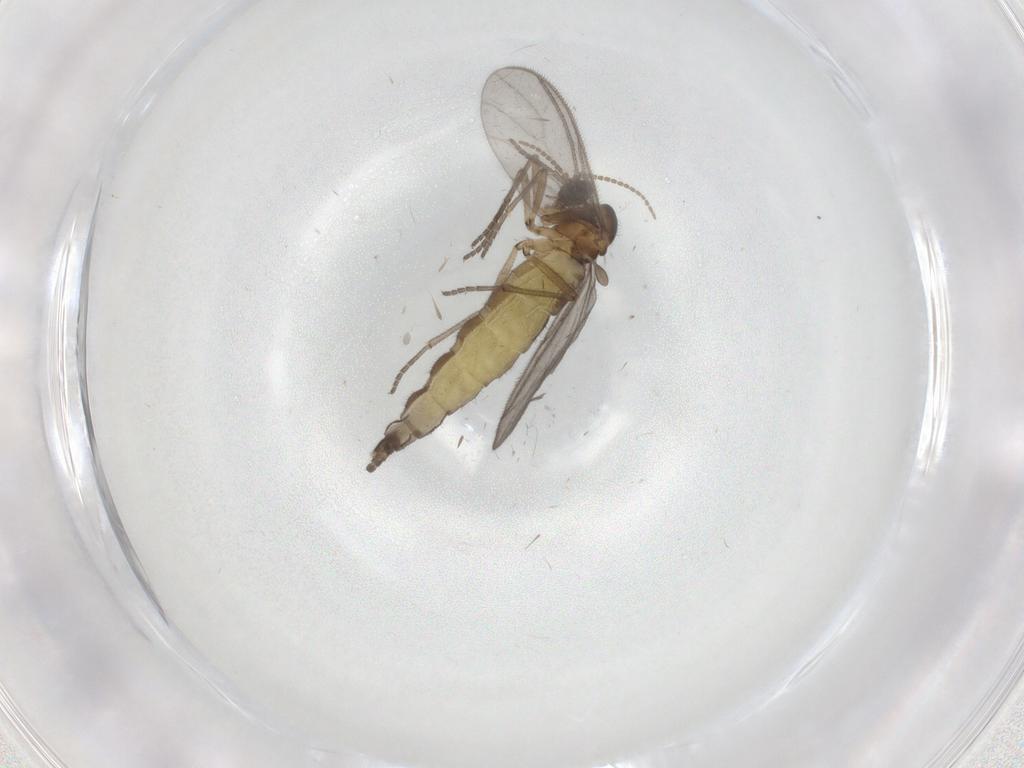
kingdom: Animalia
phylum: Arthropoda
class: Insecta
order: Diptera
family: Sciaridae
